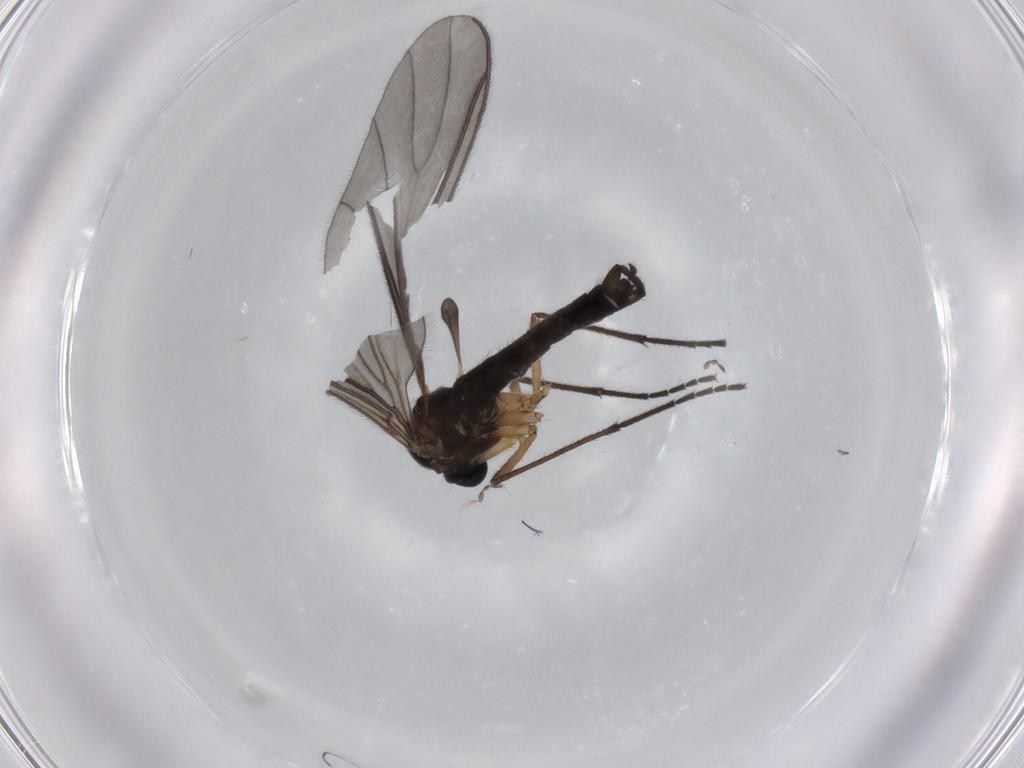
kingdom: Animalia
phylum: Arthropoda
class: Insecta
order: Diptera
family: Sciaridae
